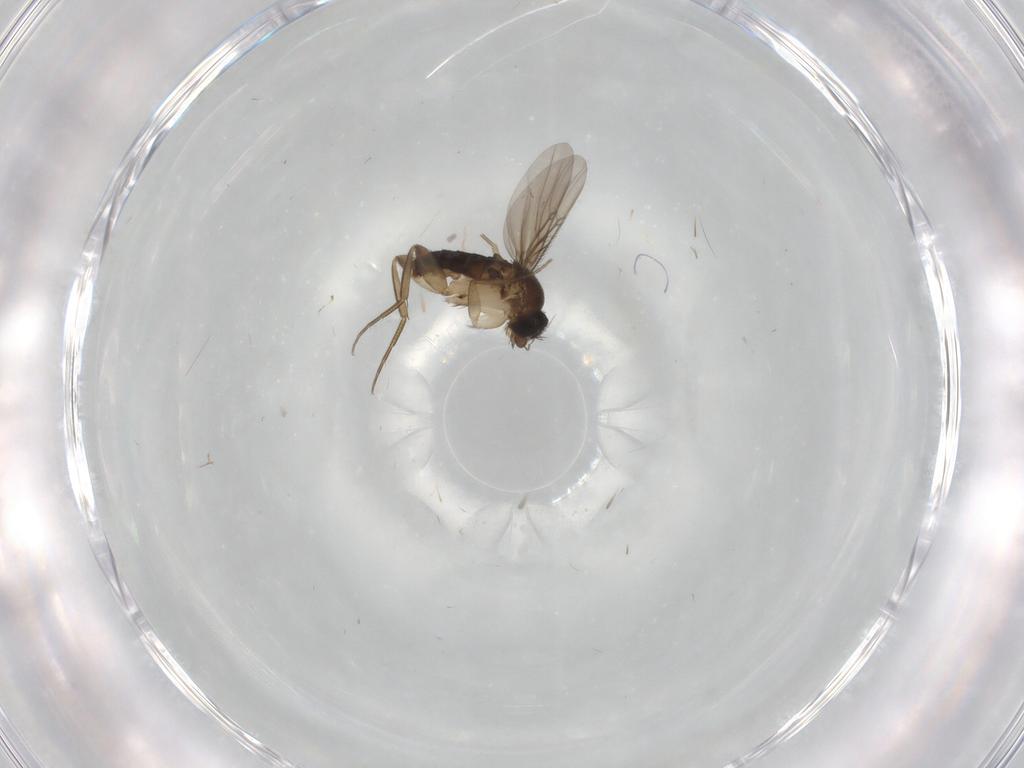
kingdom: Animalia
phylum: Arthropoda
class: Insecta
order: Diptera
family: Phoridae
